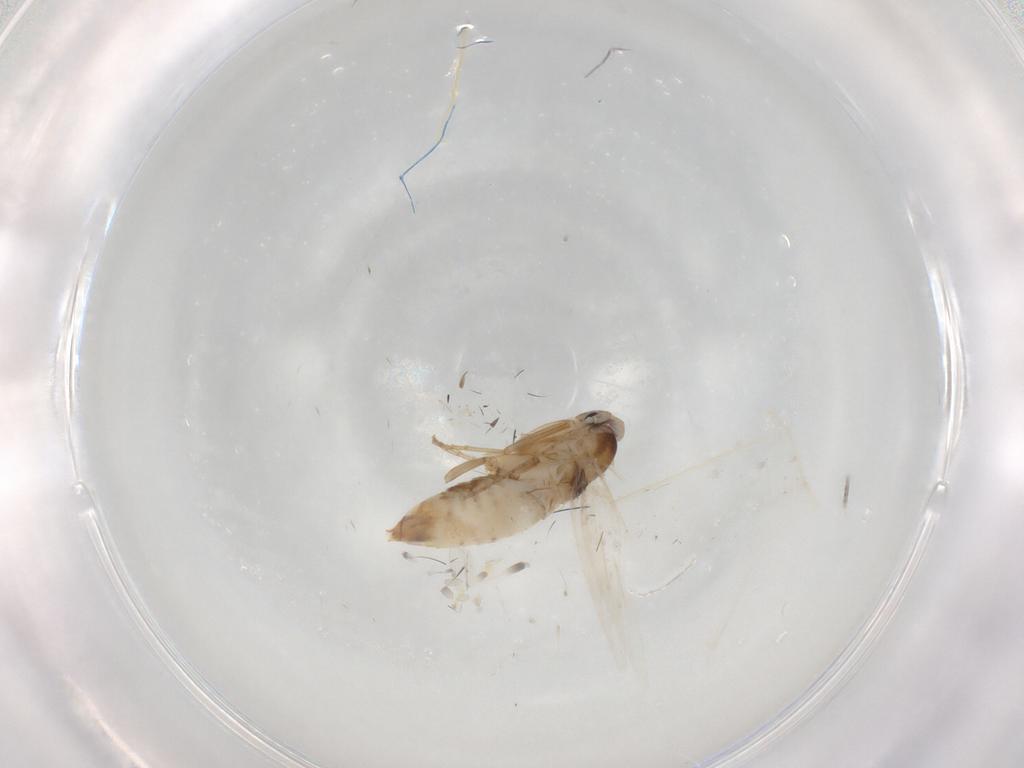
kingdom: Animalia
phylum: Arthropoda
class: Insecta
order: Lepidoptera
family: Bucculatricidae
